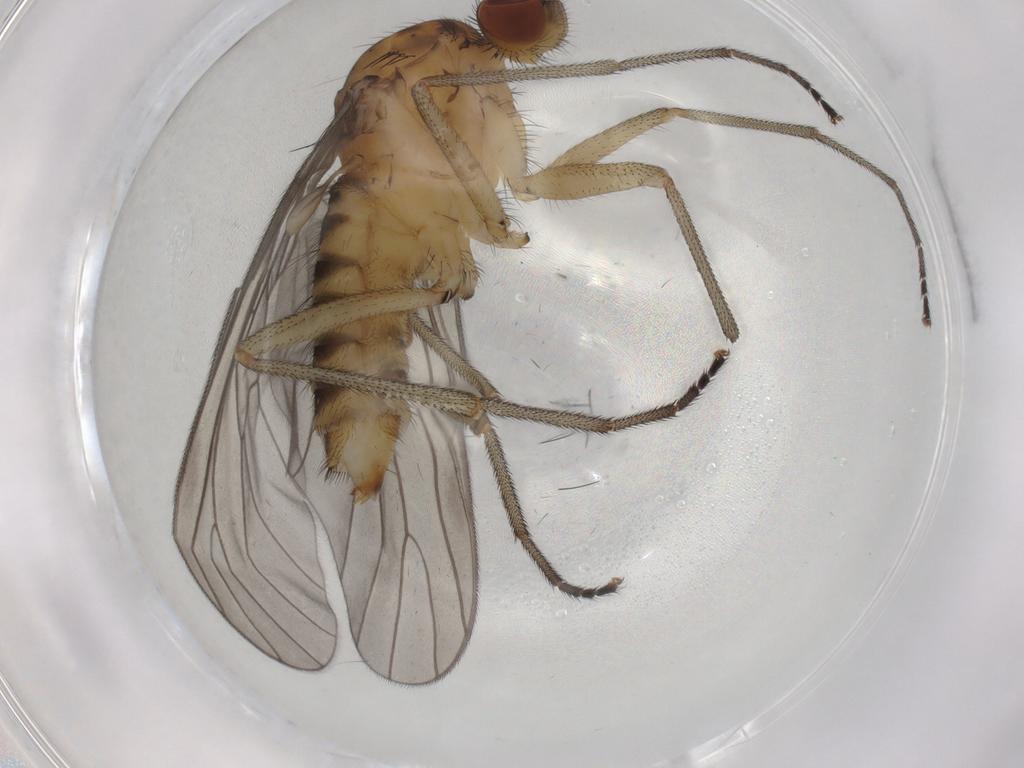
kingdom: Animalia
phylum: Arthropoda
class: Insecta
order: Diptera
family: Brachystomatidae
